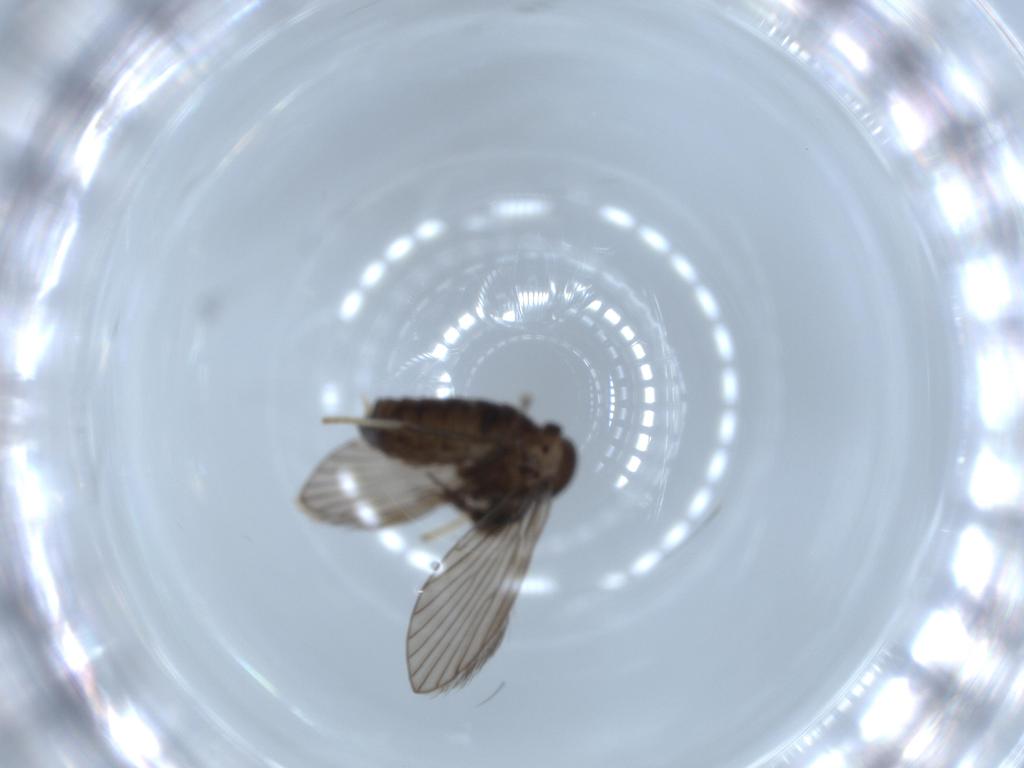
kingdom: Animalia
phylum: Arthropoda
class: Insecta
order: Diptera
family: Psychodidae
